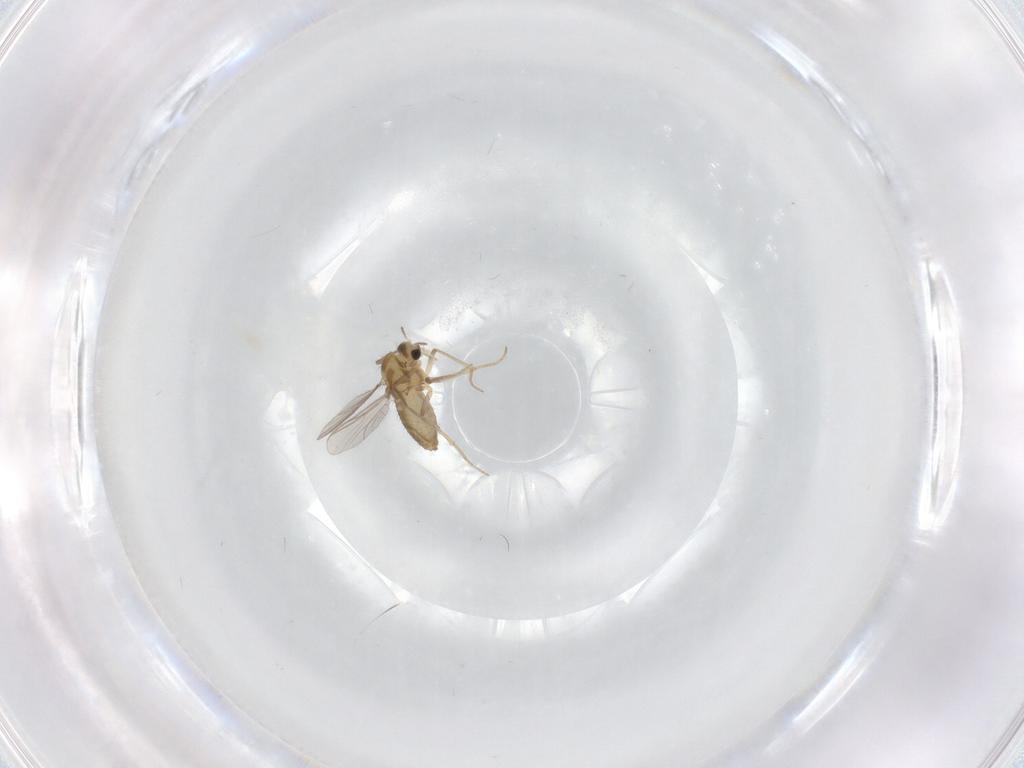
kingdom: Animalia
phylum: Arthropoda
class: Insecta
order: Diptera
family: Chironomidae
